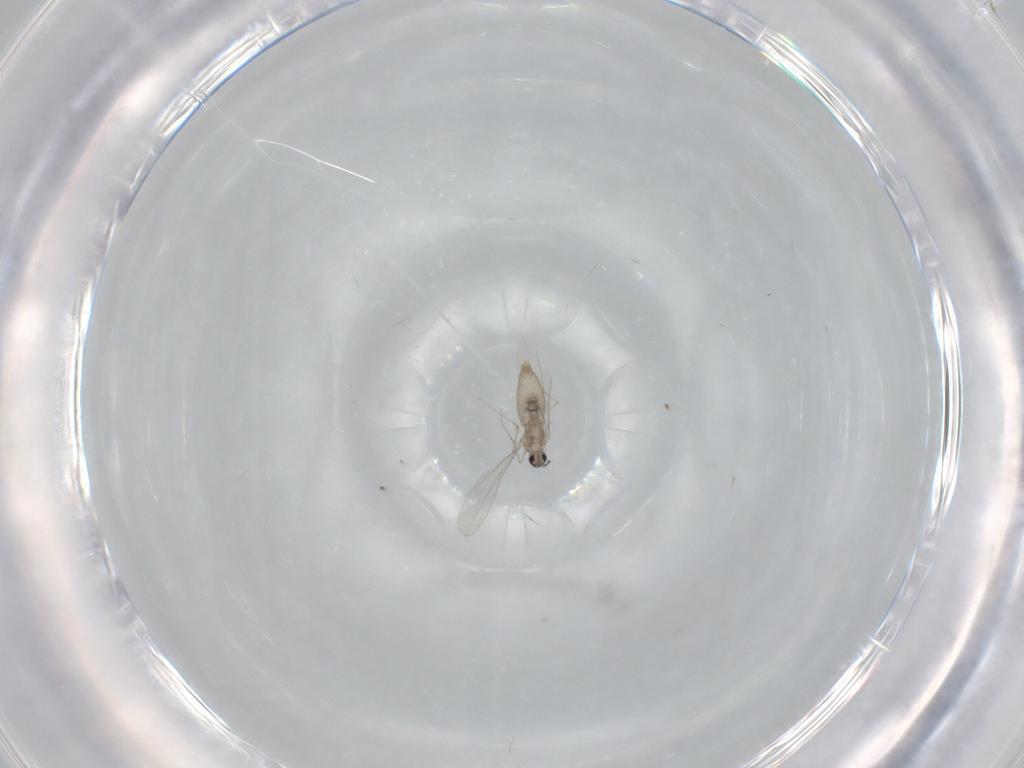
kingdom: Animalia
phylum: Arthropoda
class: Insecta
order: Diptera
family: Cecidomyiidae
